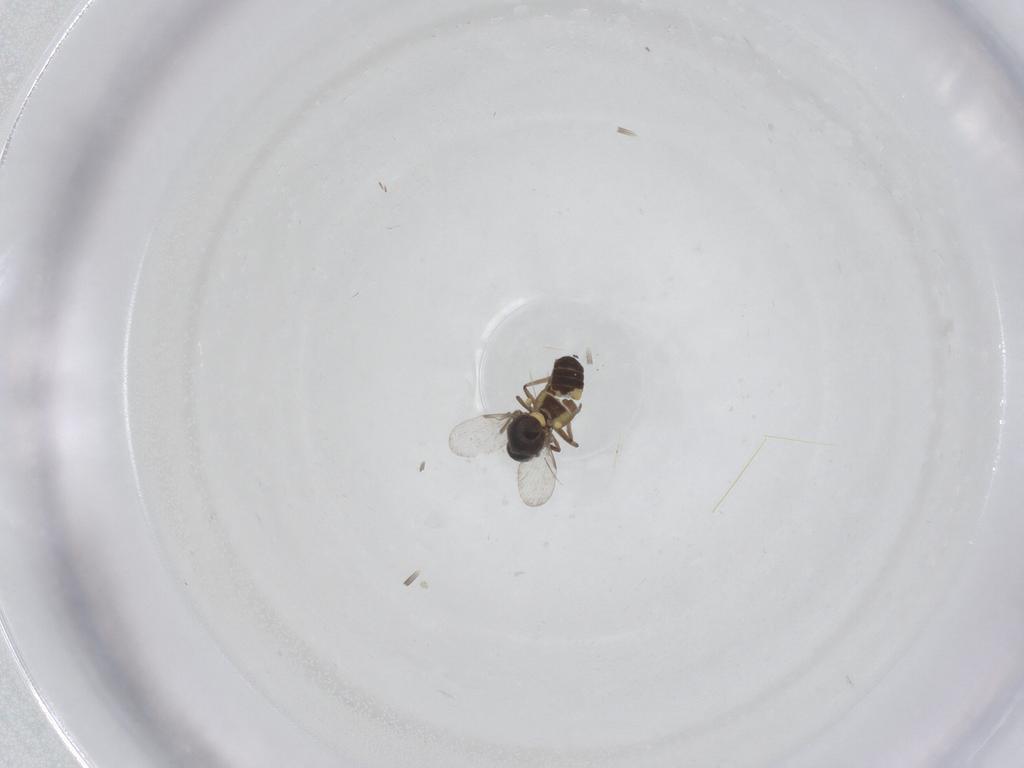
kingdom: Animalia
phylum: Arthropoda
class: Insecta
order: Diptera
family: Ceratopogonidae
